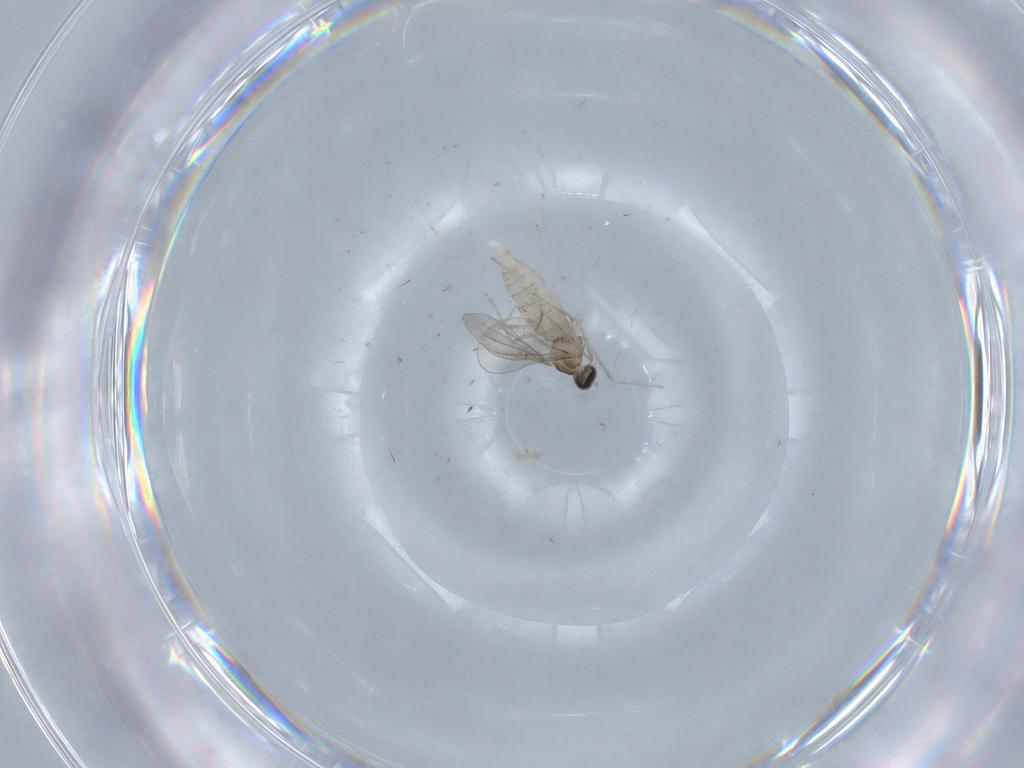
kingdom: Animalia
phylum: Arthropoda
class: Insecta
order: Diptera
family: Cecidomyiidae
